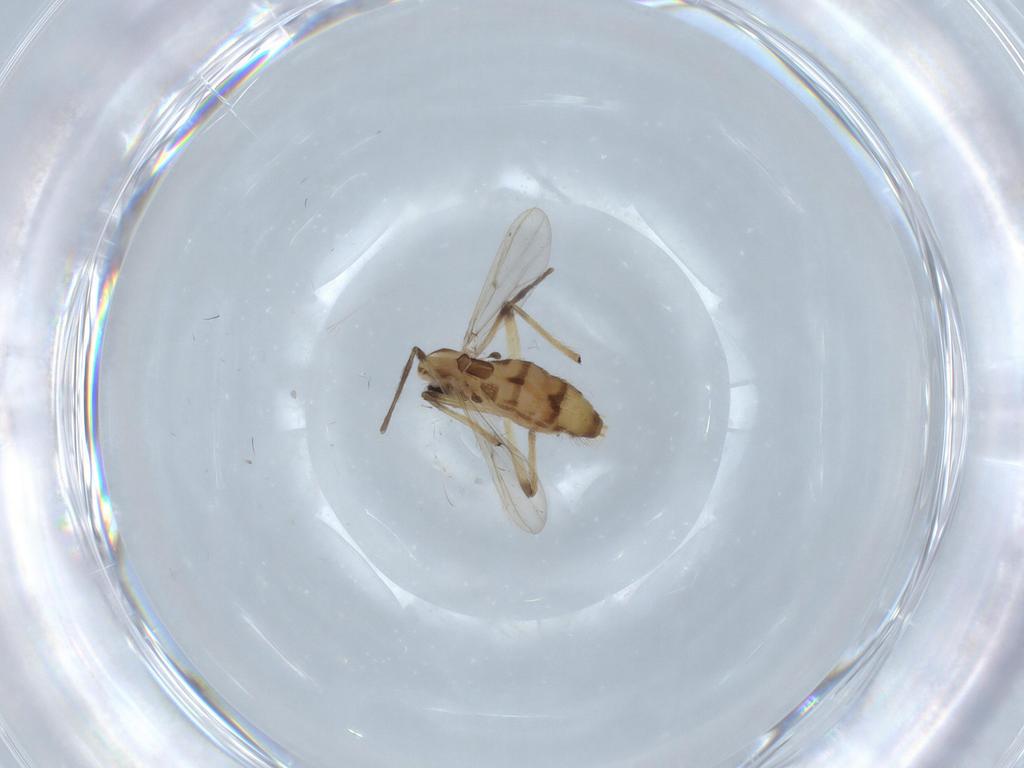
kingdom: Animalia
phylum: Arthropoda
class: Insecta
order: Diptera
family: Chironomidae
